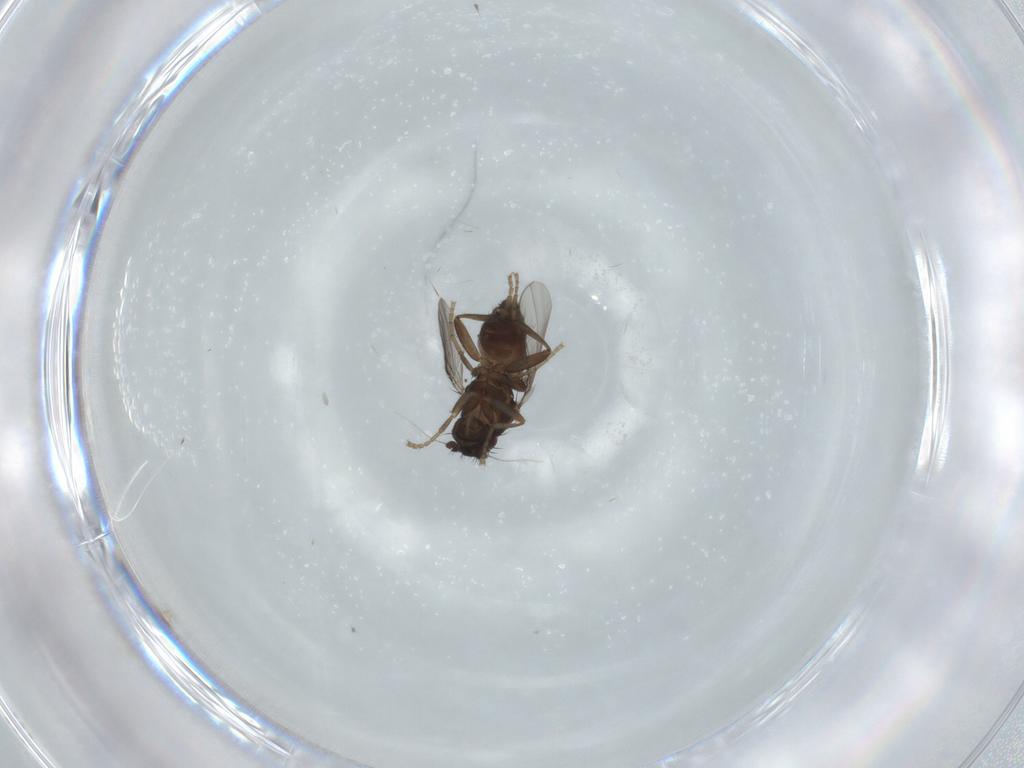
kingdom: Animalia
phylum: Arthropoda
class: Insecta
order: Diptera
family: Sphaeroceridae
